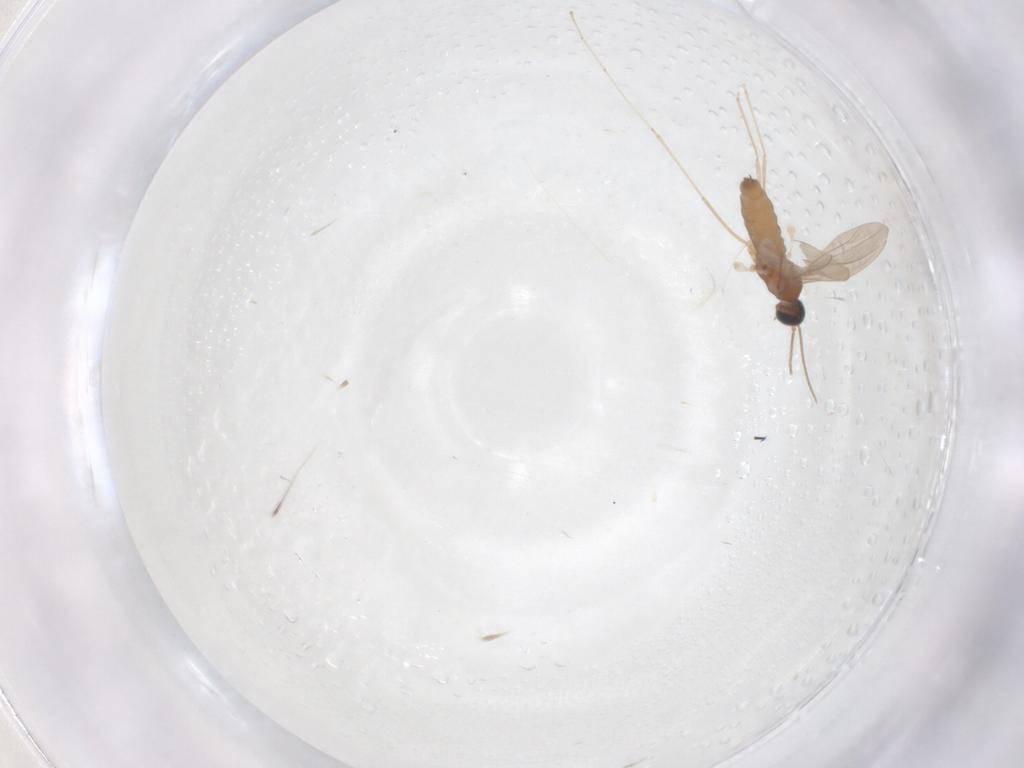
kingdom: Animalia
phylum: Arthropoda
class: Insecta
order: Diptera
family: Cecidomyiidae
